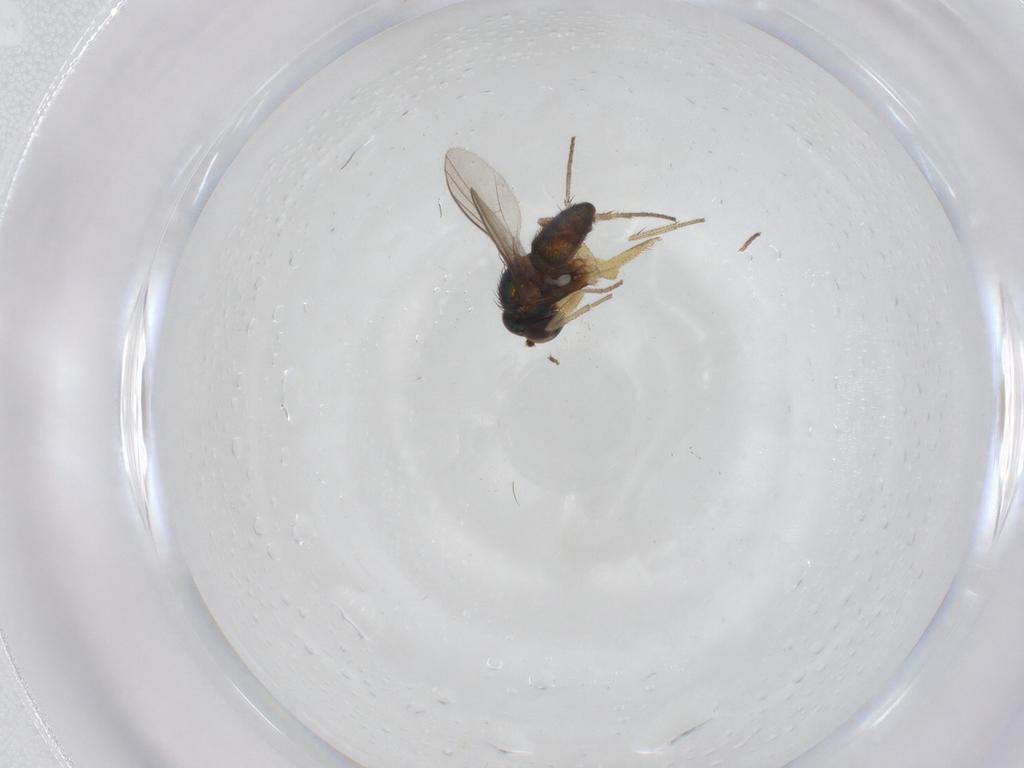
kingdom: Animalia
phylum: Arthropoda
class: Insecta
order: Diptera
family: Dolichopodidae
